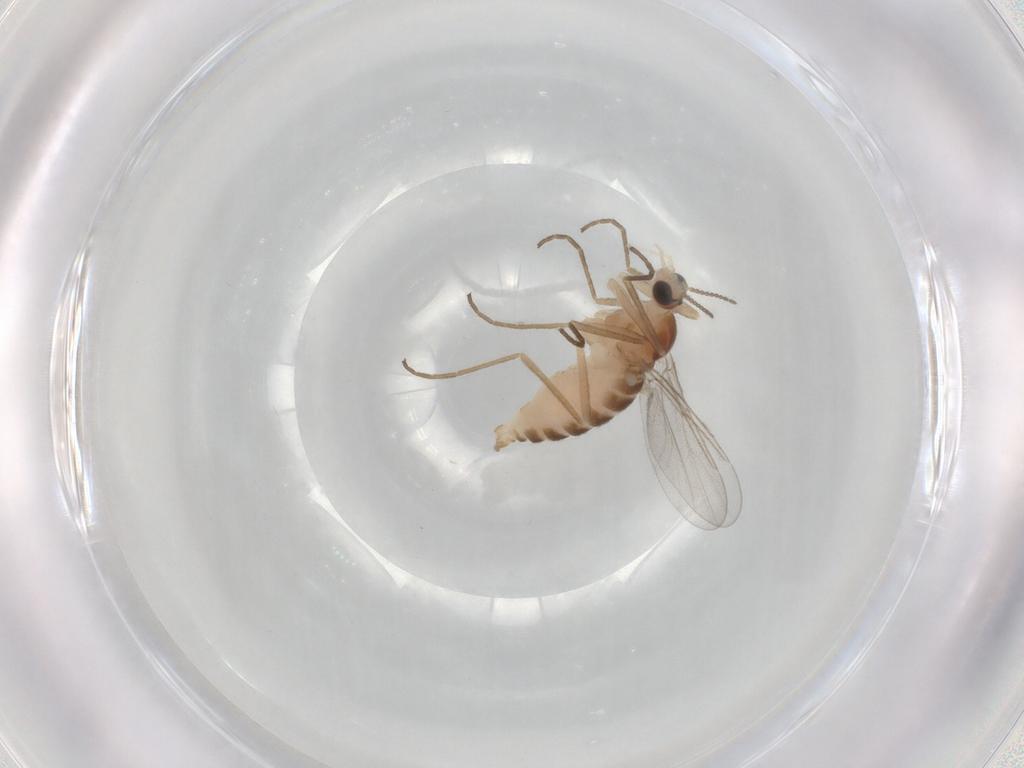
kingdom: Animalia
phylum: Arthropoda
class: Insecta
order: Diptera
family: Cecidomyiidae
